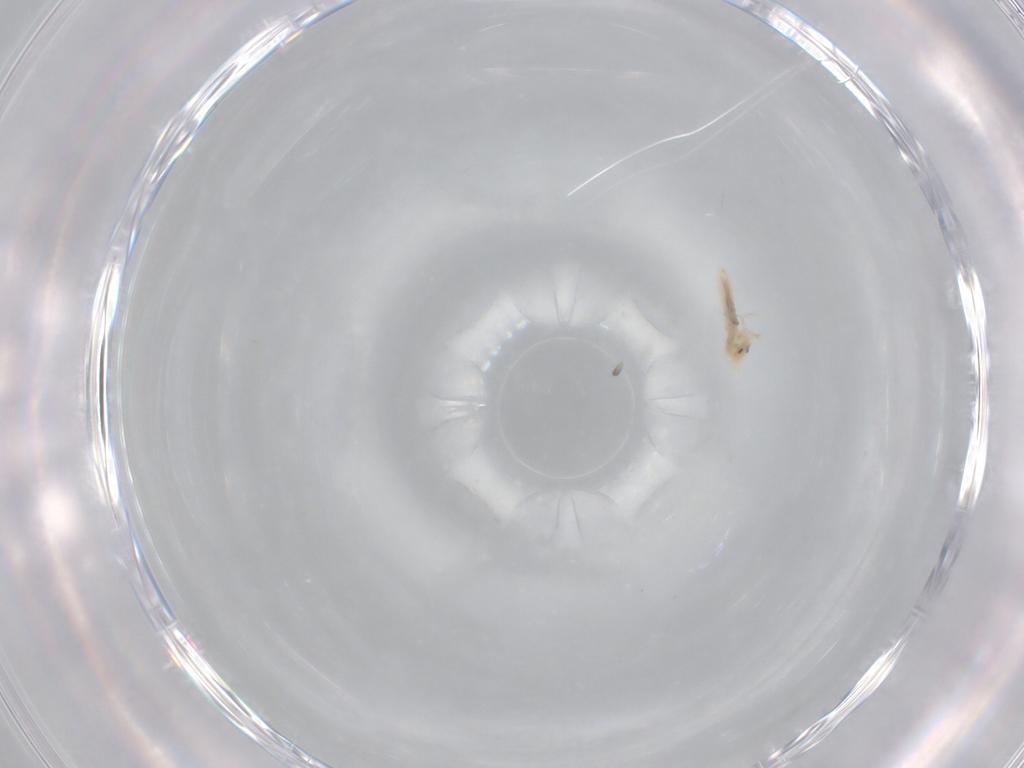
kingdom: Animalia
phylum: Arthropoda
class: Collembola
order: Entomobryomorpha
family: Entomobryidae
